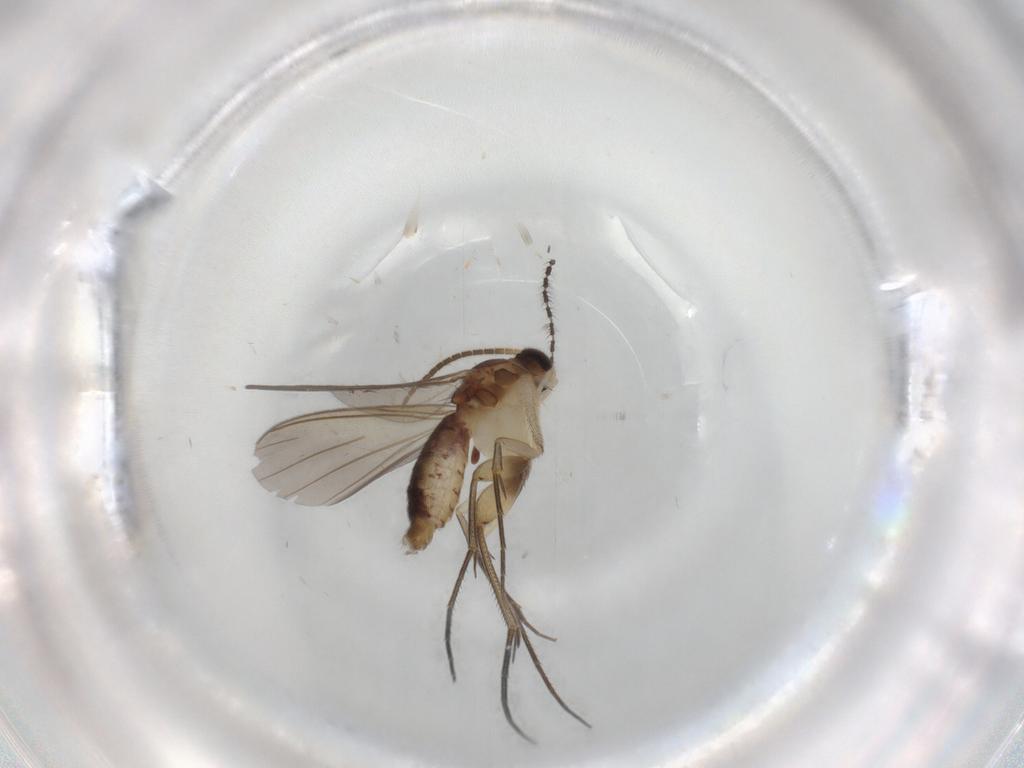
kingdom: Animalia
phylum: Arthropoda
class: Insecta
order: Diptera
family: Mycetophilidae
